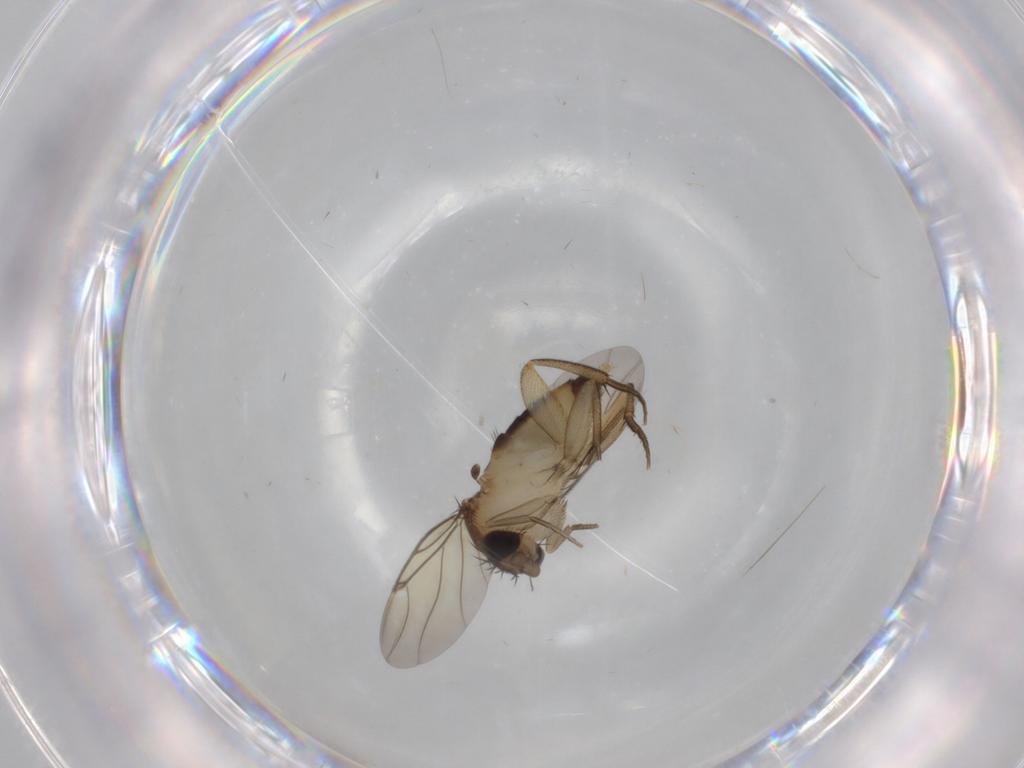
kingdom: Animalia
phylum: Arthropoda
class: Insecta
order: Diptera
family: Phoridae
